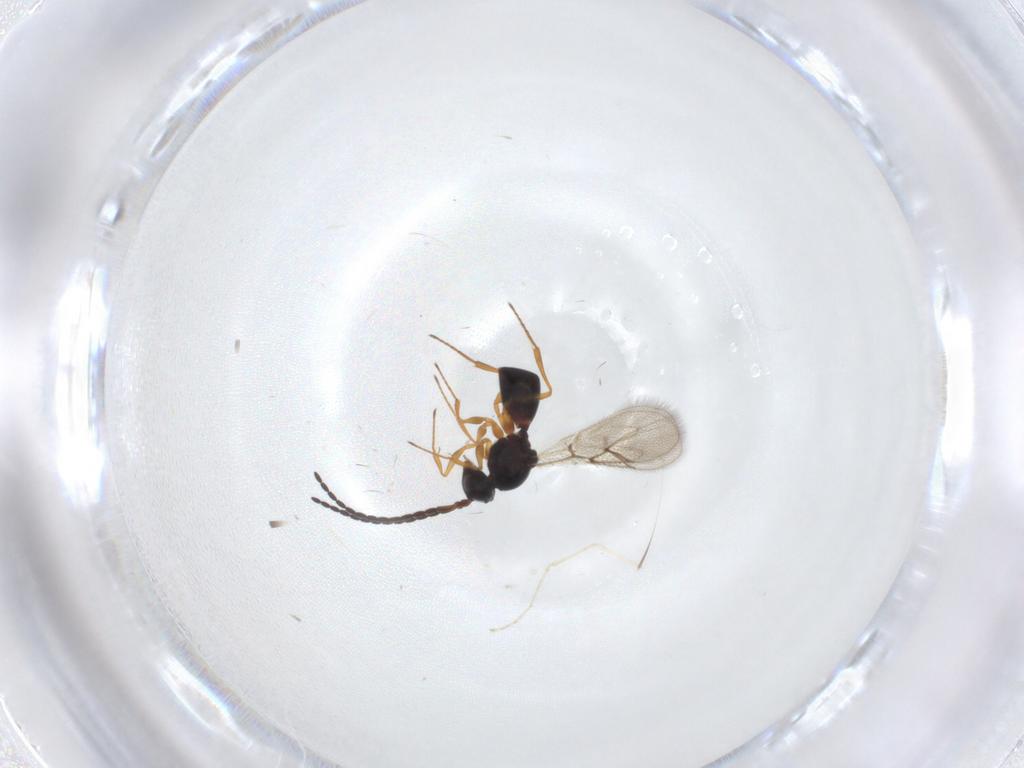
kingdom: Animalia
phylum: Arthropoda
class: Insecta
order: Hymenoptera
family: Figitidae
